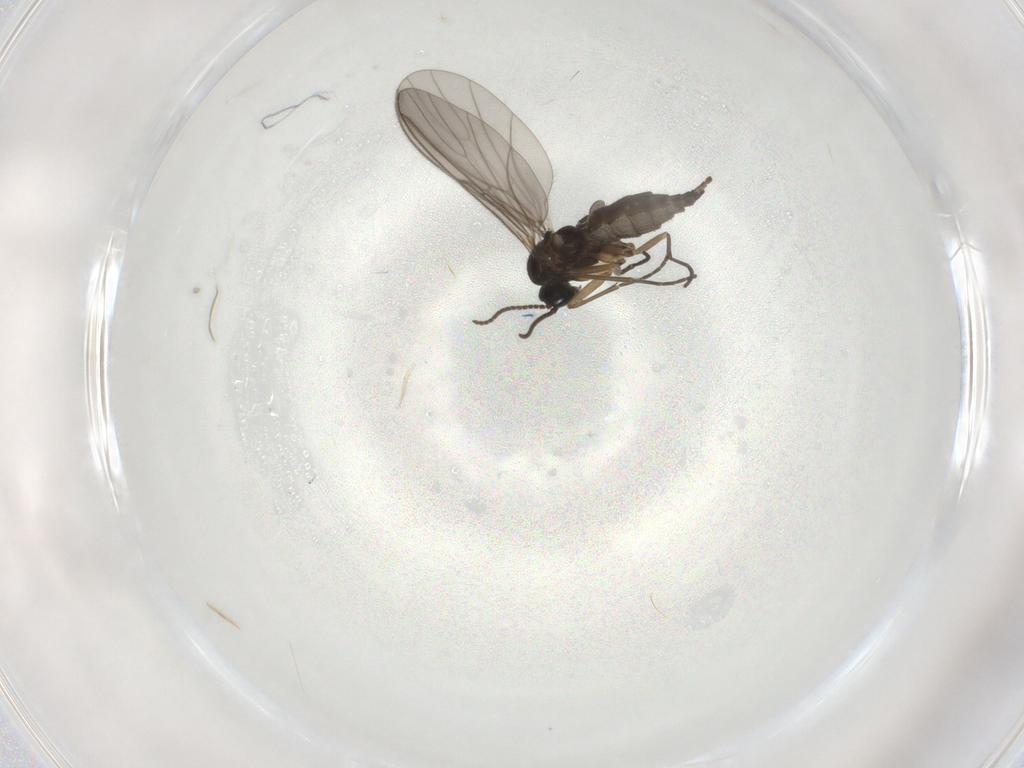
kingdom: Animalia
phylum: Arthropoda
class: Insecta
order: Diptera
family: Sciaridae
